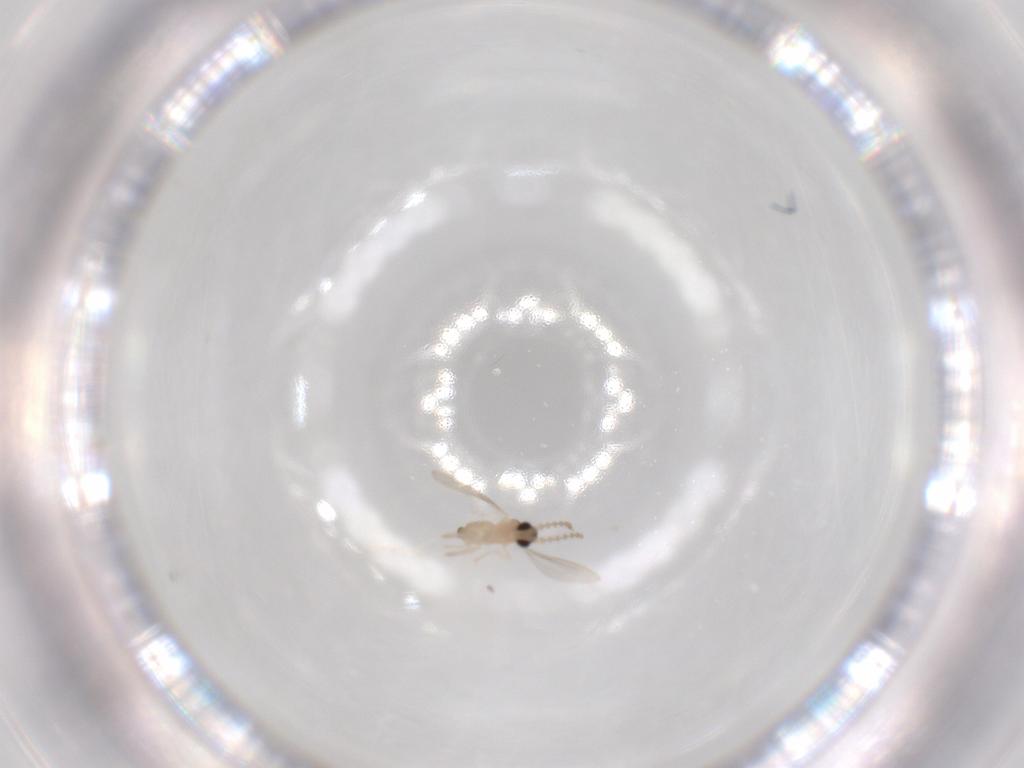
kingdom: Animalia
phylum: Arthropoda
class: Insecta
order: Diptera
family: Cecidomyiidae
